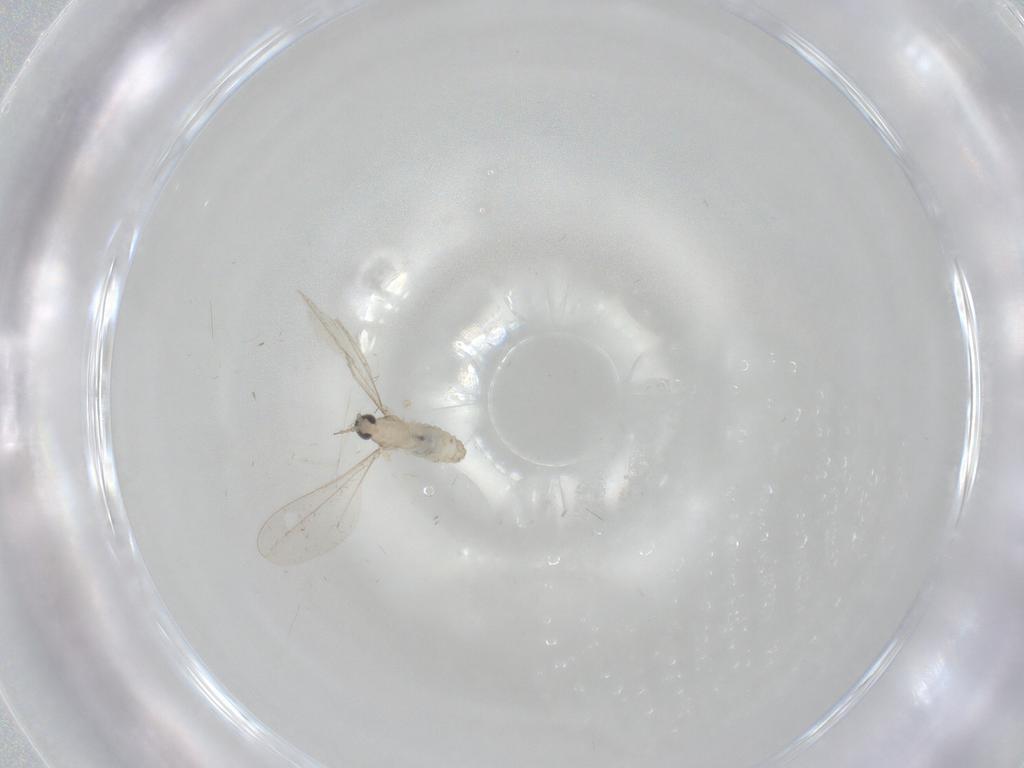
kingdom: Animalia
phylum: Arthropoda
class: Insecta
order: Diptera
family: Cecidomyiidae
